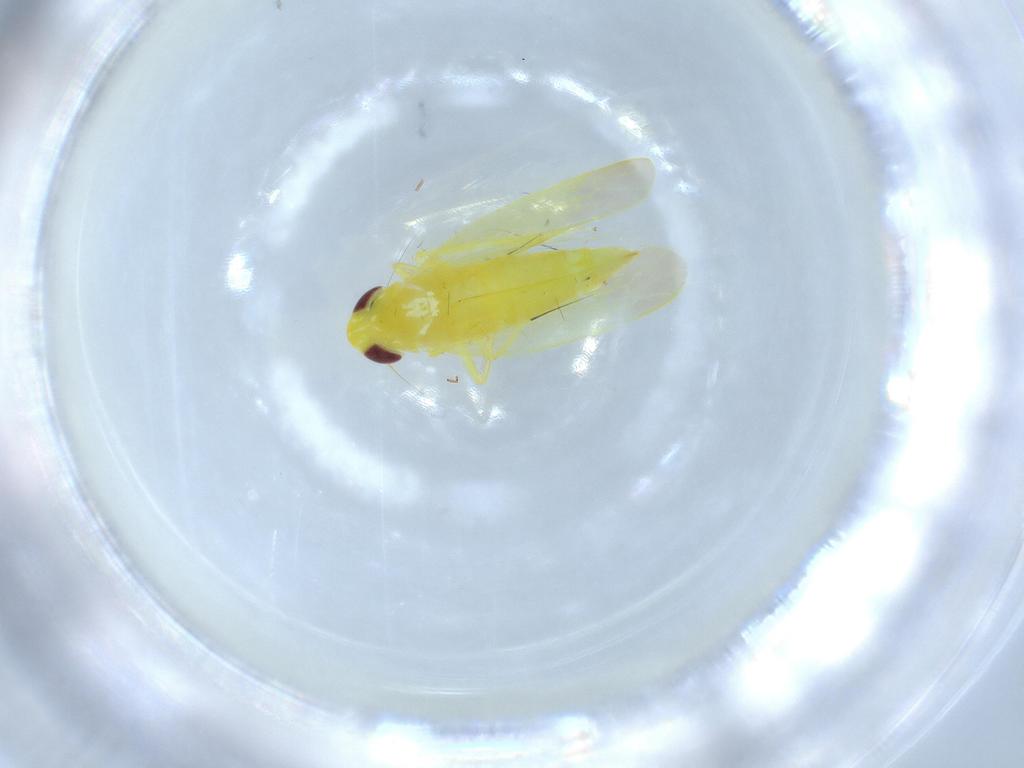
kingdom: Animalia
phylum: Arthropoda
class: Insecta
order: Hemiptera
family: Cicadellidae
